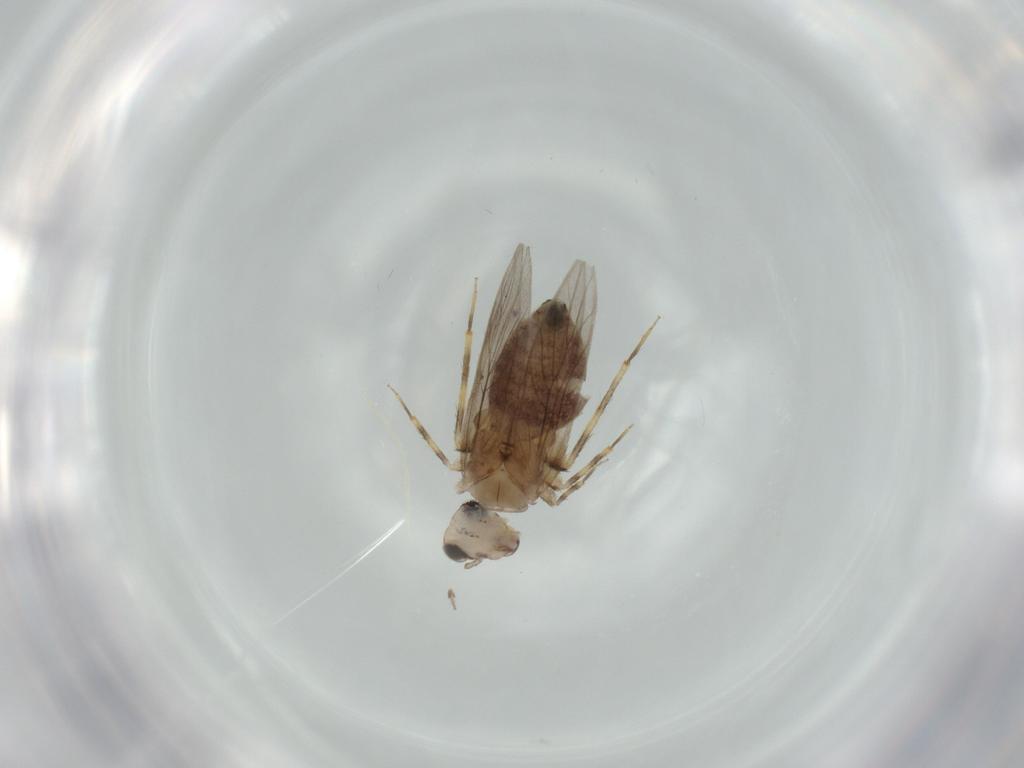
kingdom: Animalia
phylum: Arthropoda
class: Insecta
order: Psocodea
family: Lepidopsocidae
